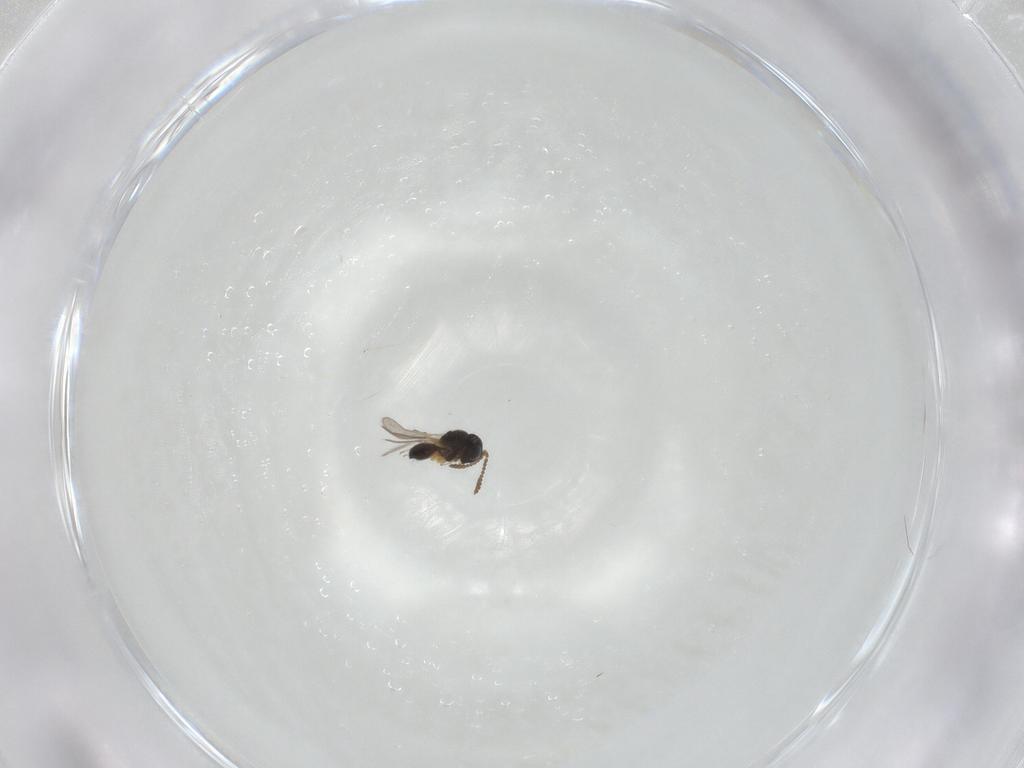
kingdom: Animalia
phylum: Arthropoda
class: Insecta
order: Hymenoptera
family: Scelionidae
